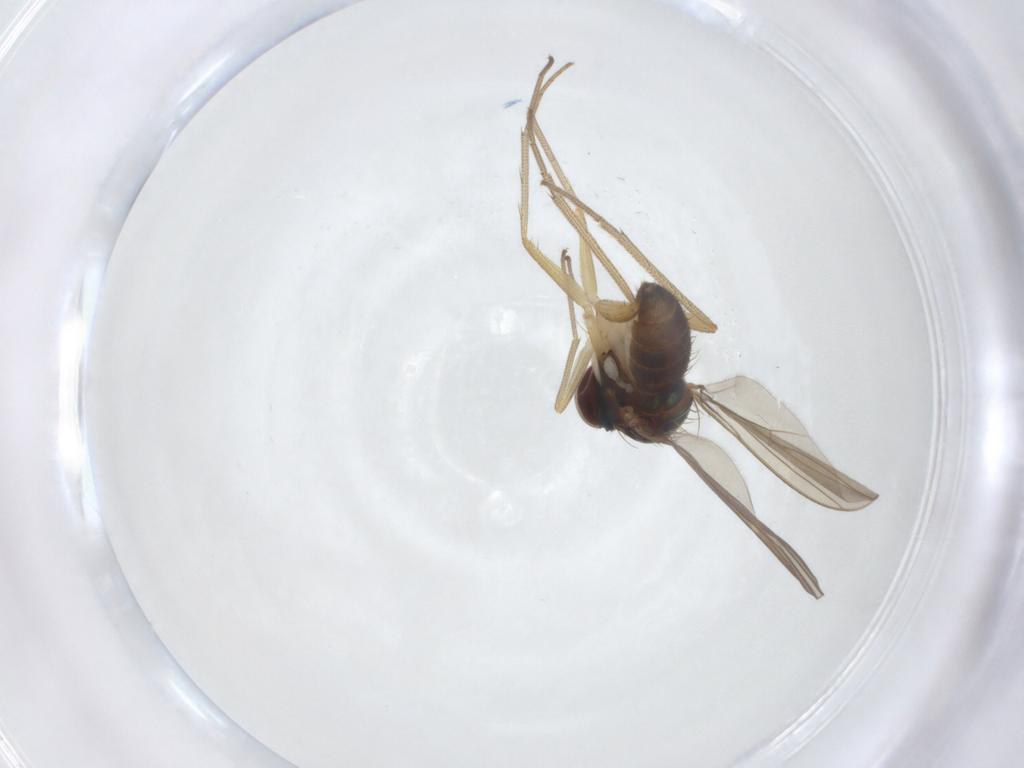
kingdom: Animalia
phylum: Arthropoda
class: Insecta
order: Diptera
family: Dolichopodidae
